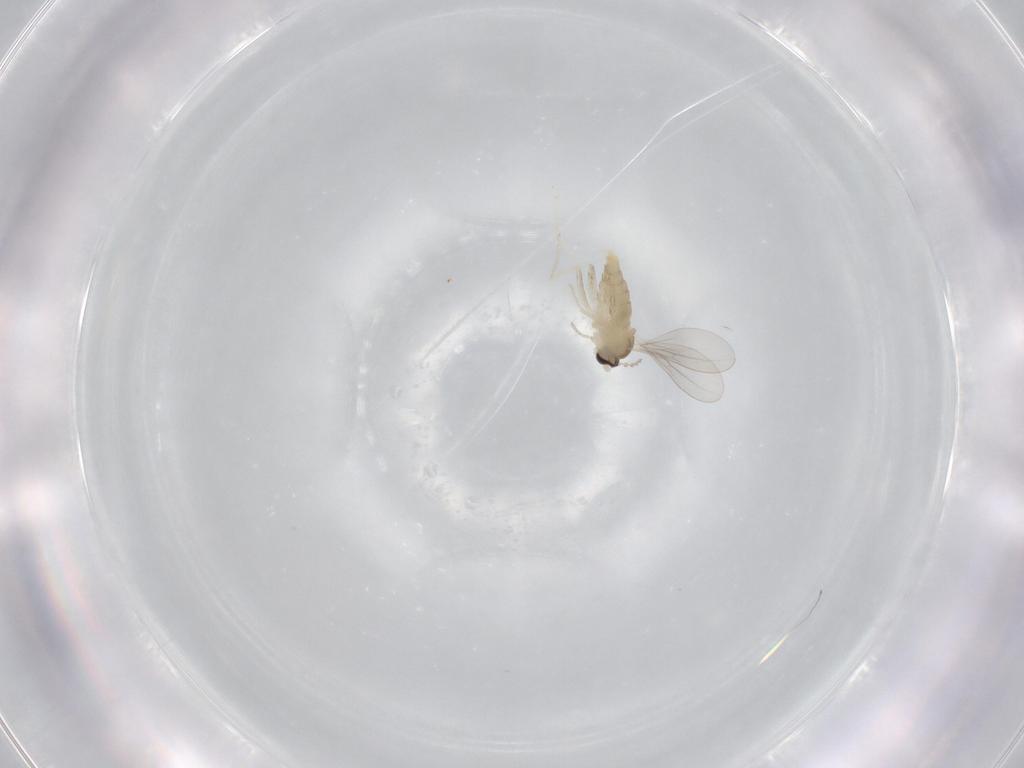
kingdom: Animalia
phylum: Arthropoda
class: Insecta
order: Diptera
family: Cecidomyiidae
